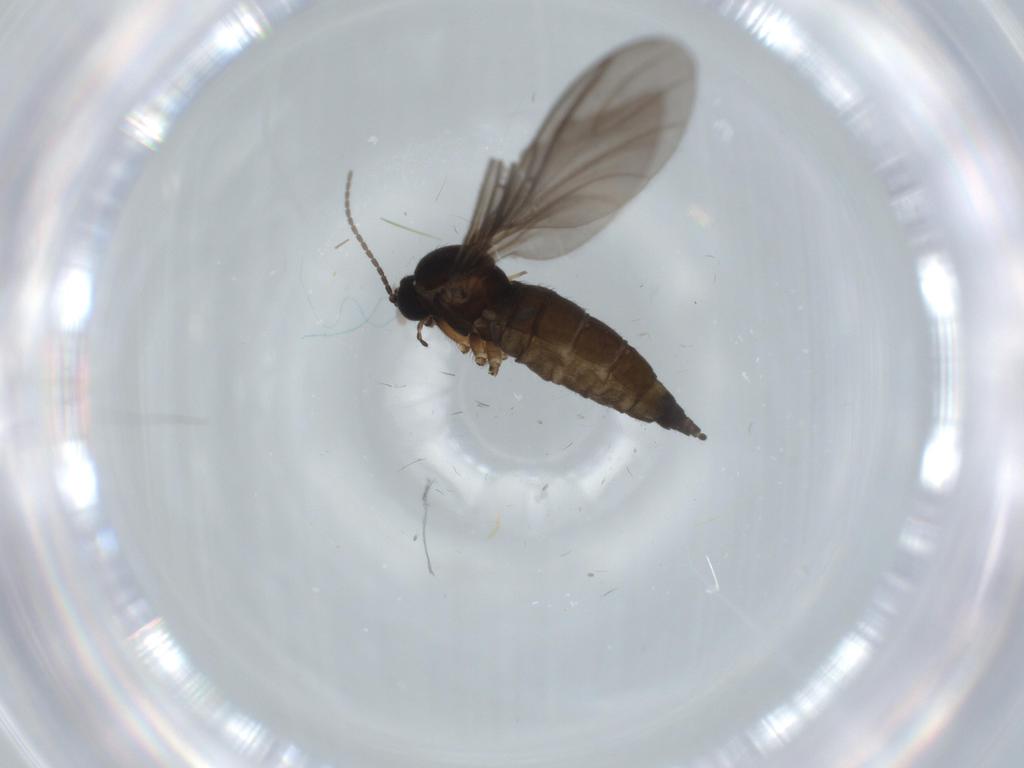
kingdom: Animalia
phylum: Arthropoda
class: Insecta
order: Diptera
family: Sciaridae
